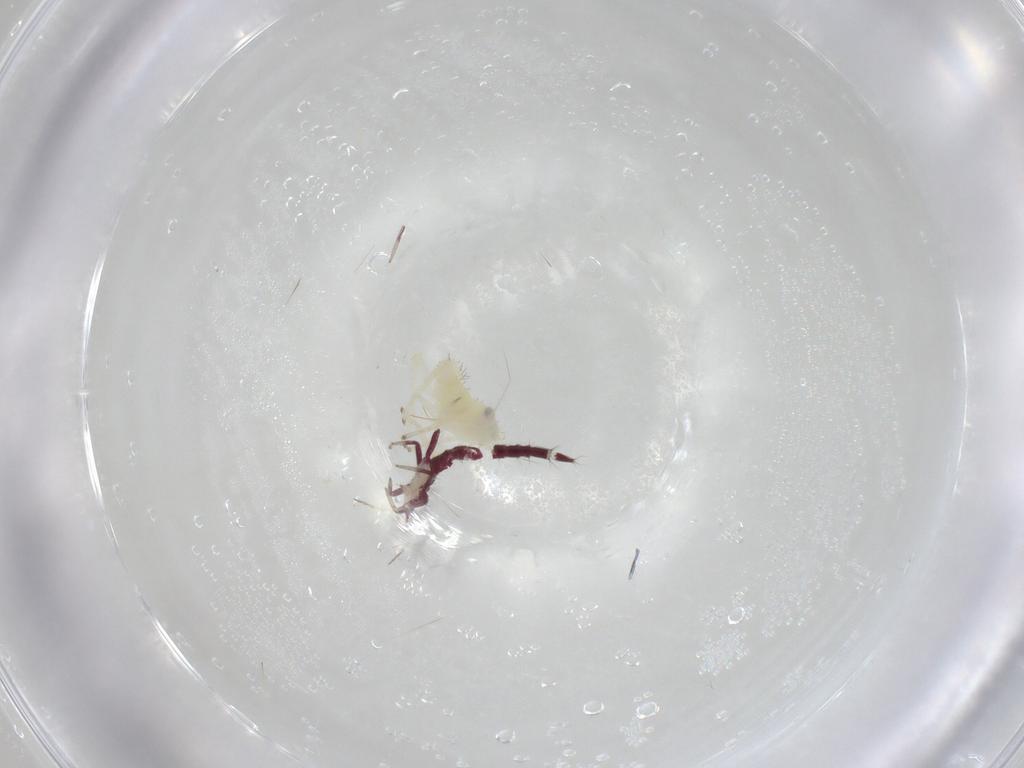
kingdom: Animalia
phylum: Arthropoda
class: Insecta
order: Thysanoptera
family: Phlaeothripidae
